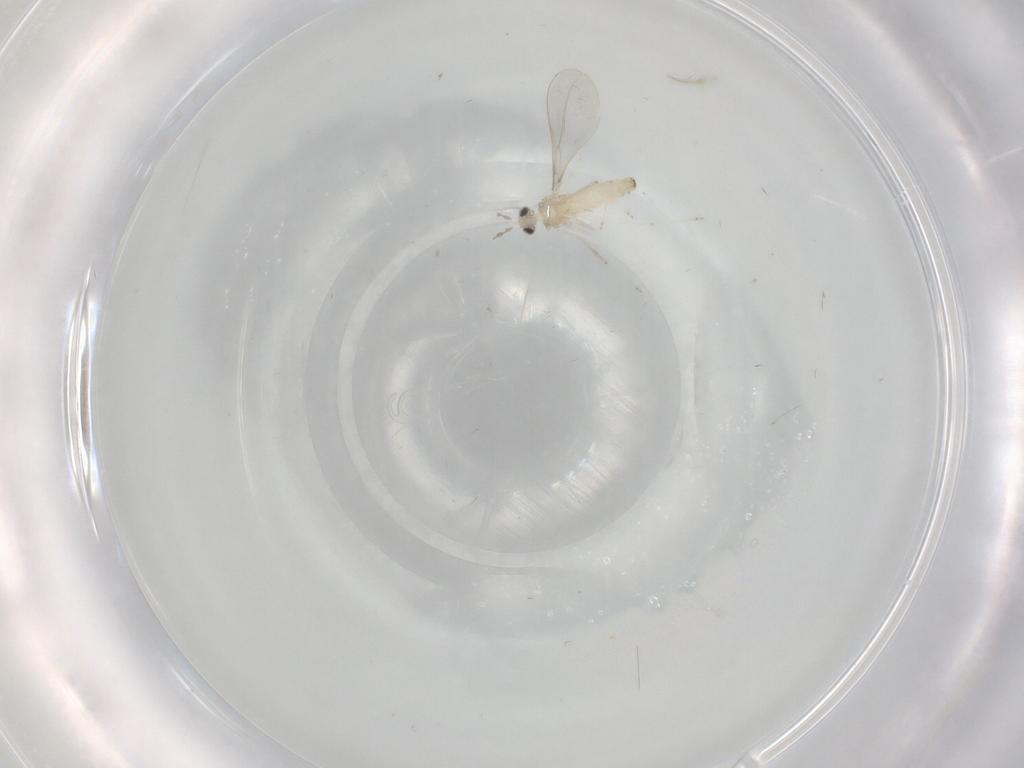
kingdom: Animalia
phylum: Arthropoda
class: Insecta
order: Diptera
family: Cecidomyiidae
